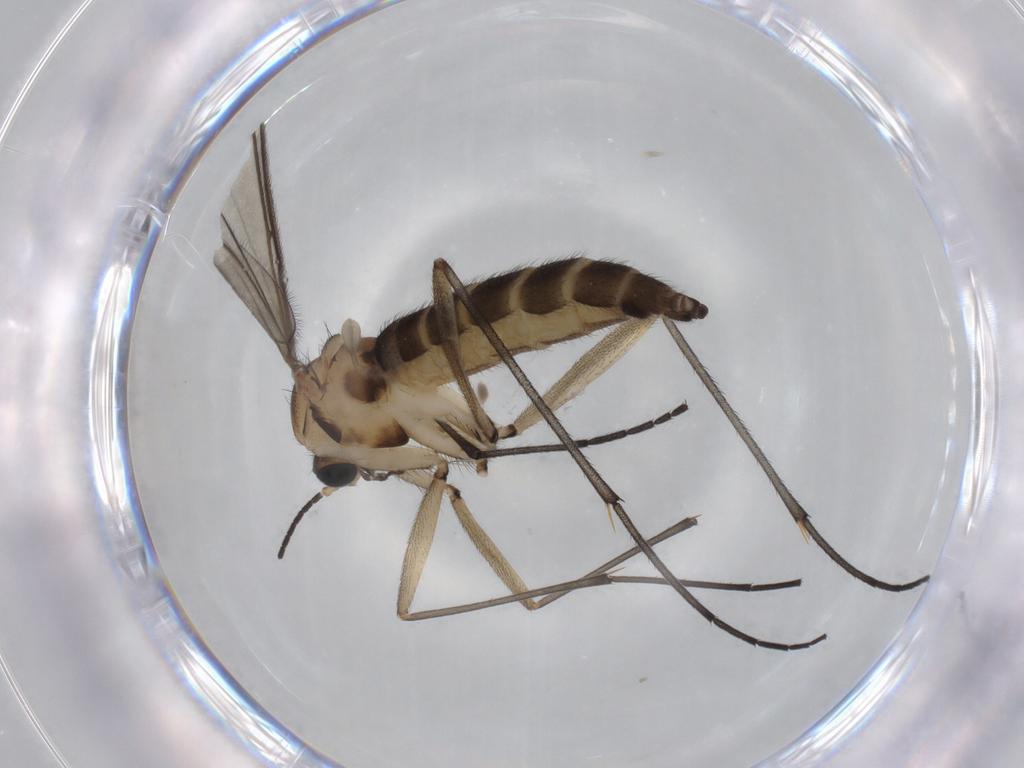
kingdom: Animalia
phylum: Arthropoda
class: Insecta
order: Diptera
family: Sciaridae
